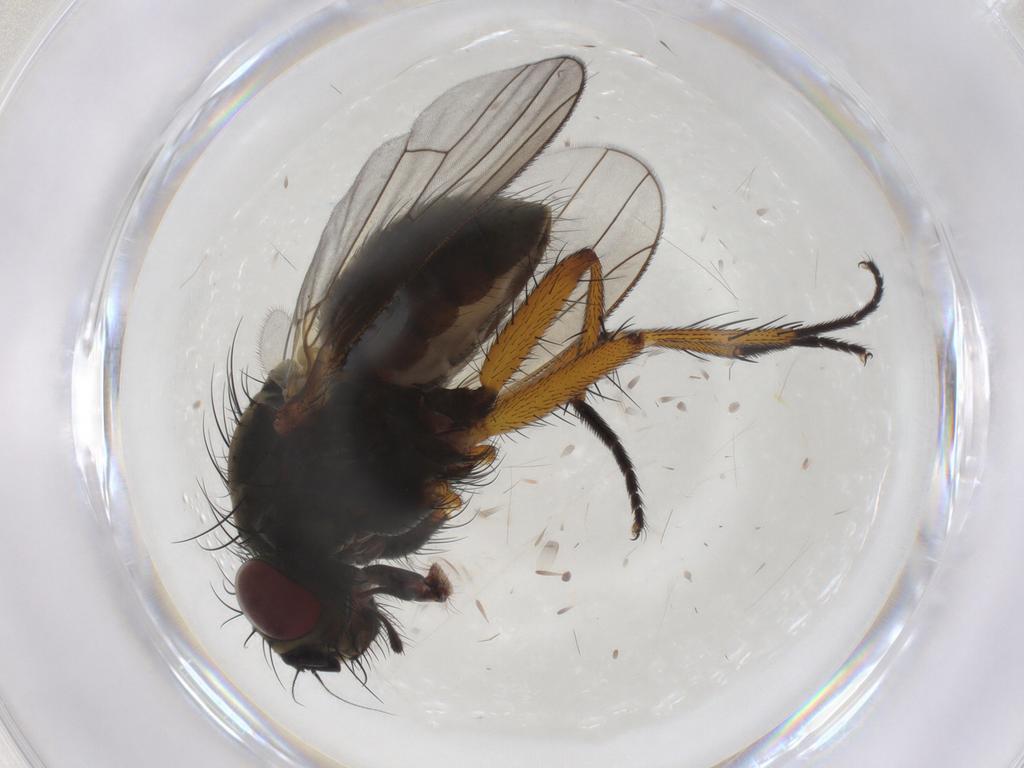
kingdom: Animalia
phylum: Arthropoda
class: Insecta
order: Diptera
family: Muscidae
